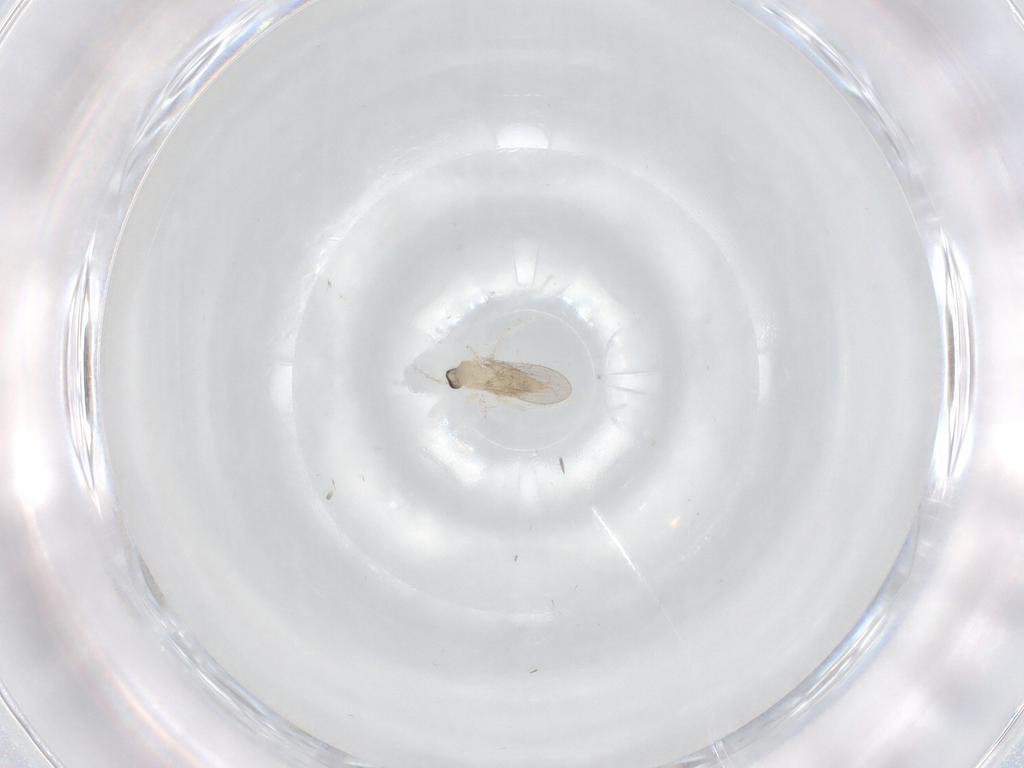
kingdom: Animalia
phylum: Arthropoda
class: Insecta
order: Diptera
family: Cecidomyiidae
